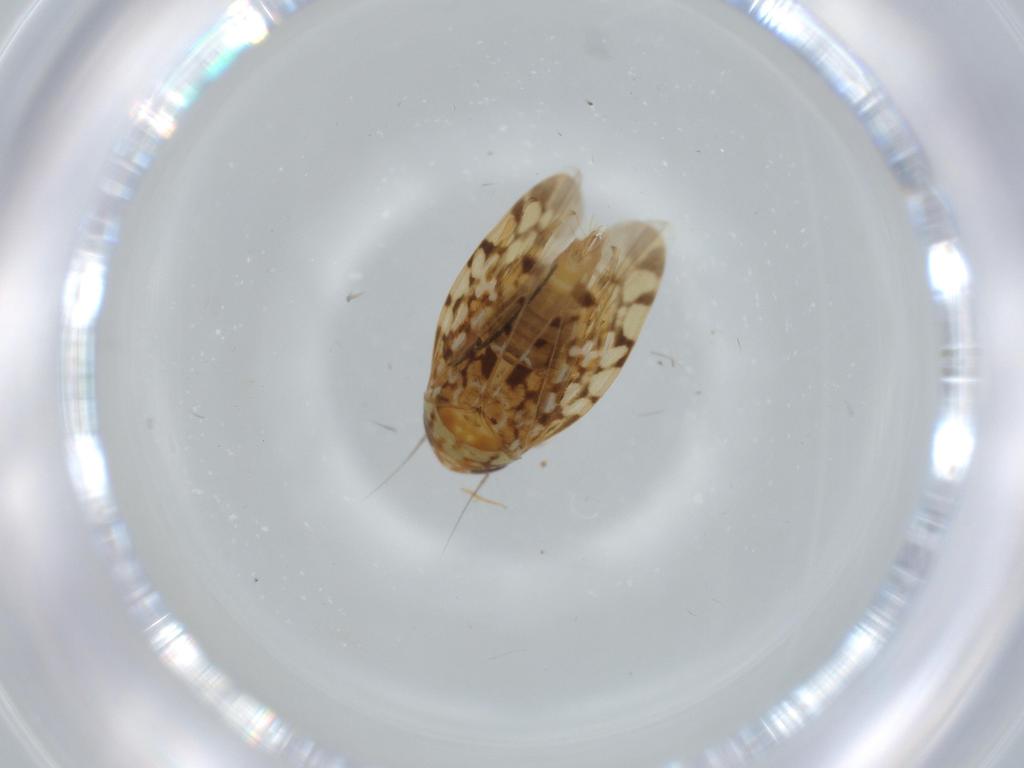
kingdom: Animalia
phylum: Arthropoda
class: Insecta
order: Hemiptera
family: Cicadellidae
